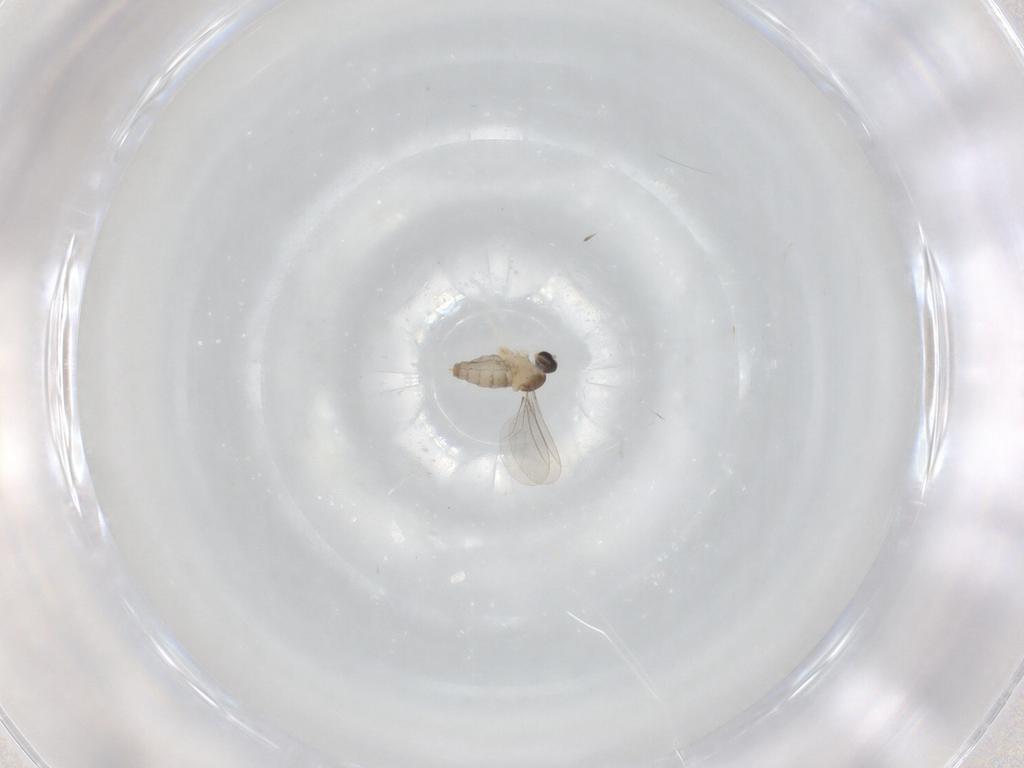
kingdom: Animalia
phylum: Arthropoda
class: Insecta
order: Diptera
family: Cecidomyiidae
